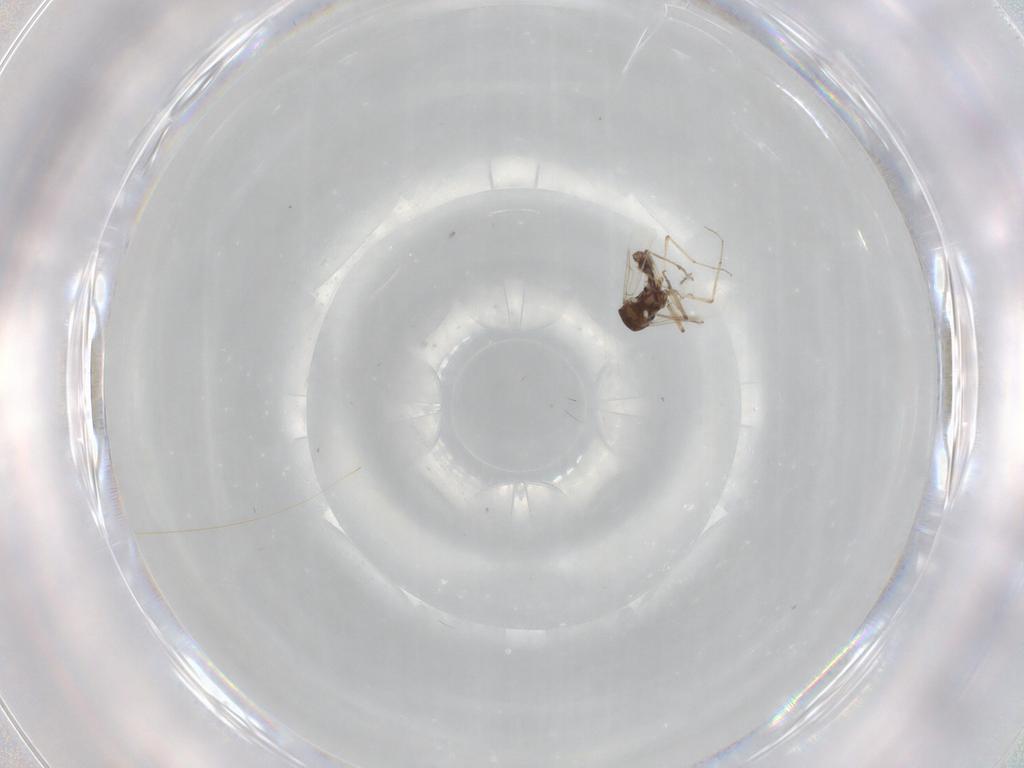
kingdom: Animalia
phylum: Arthropoda
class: Insecta
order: Diptera
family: Ceratopogonidae
